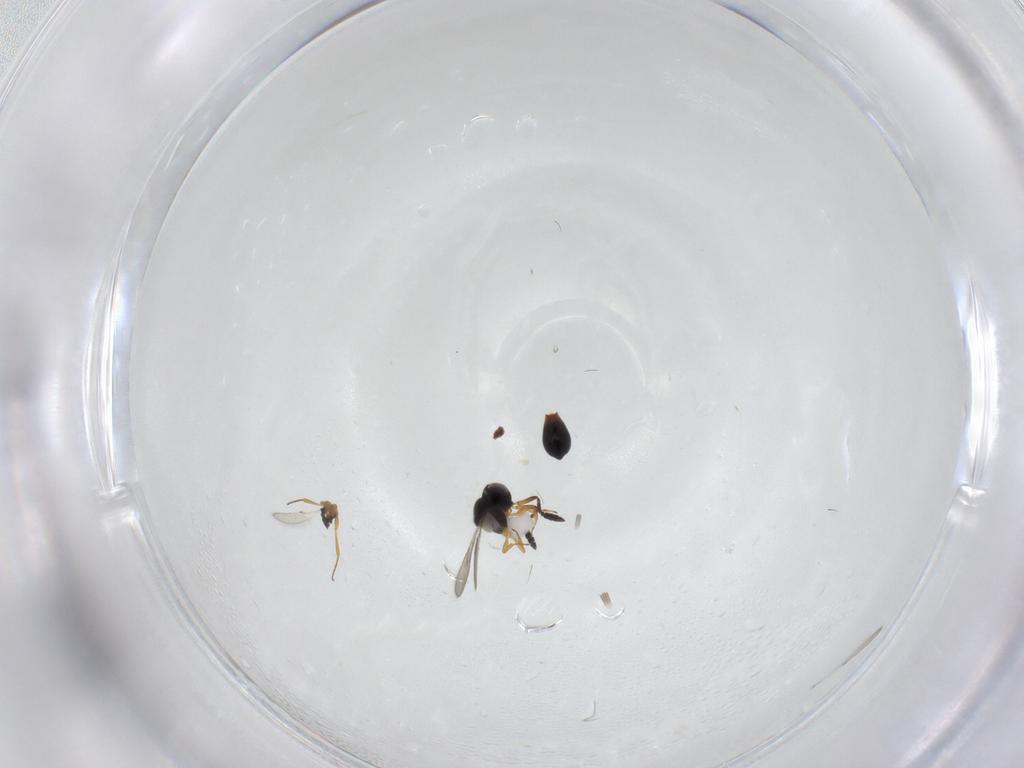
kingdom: Animalia
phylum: Arthropoda
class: Insecta
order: Hymenoptera
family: Scelionidae
